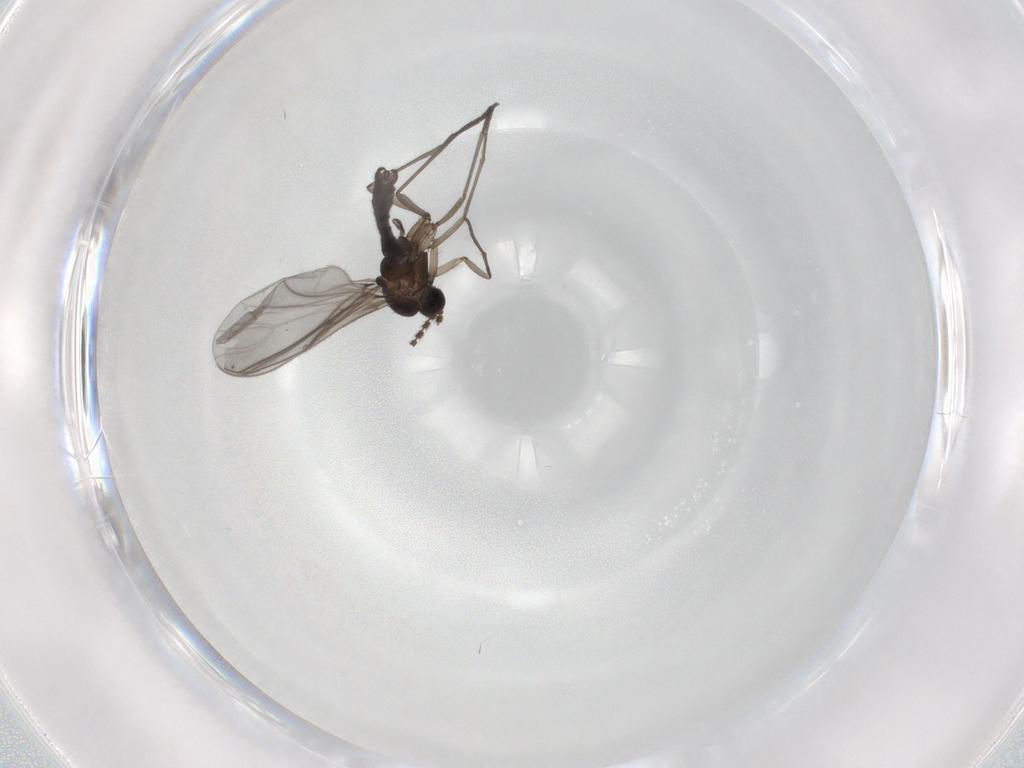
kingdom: Animalia
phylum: Arthropoda
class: Insecta
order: Diptera
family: Sciaridae
